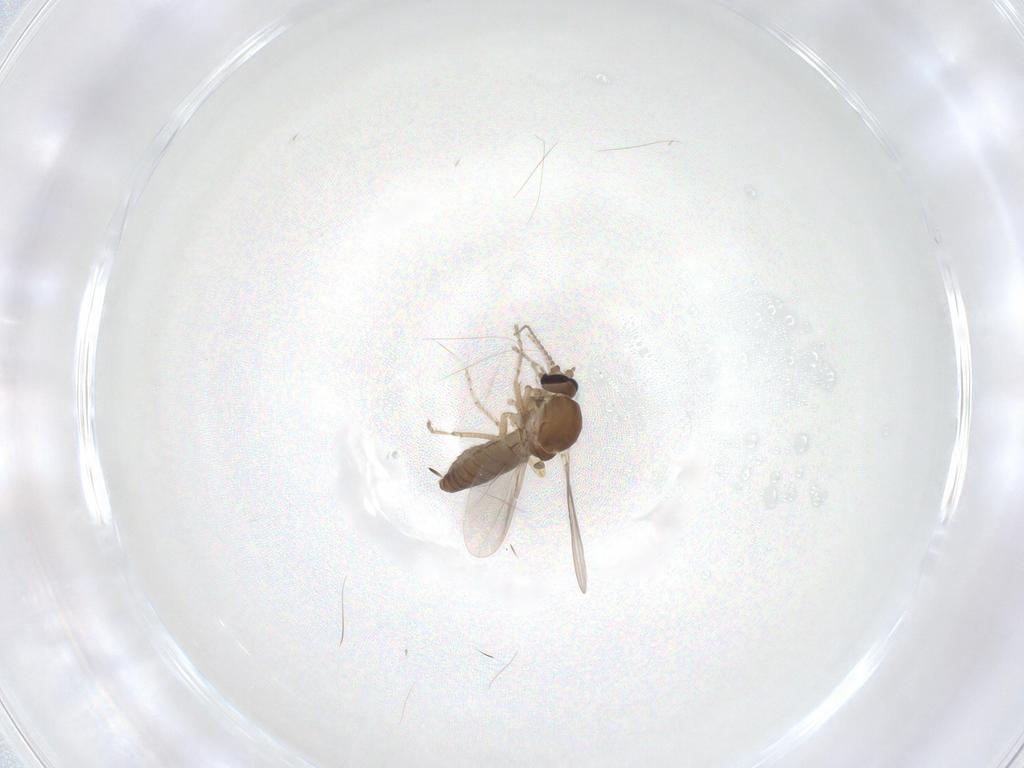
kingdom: Animalia
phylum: Arthropoda
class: Insecta
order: Diptera
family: Ceratopogonidae
